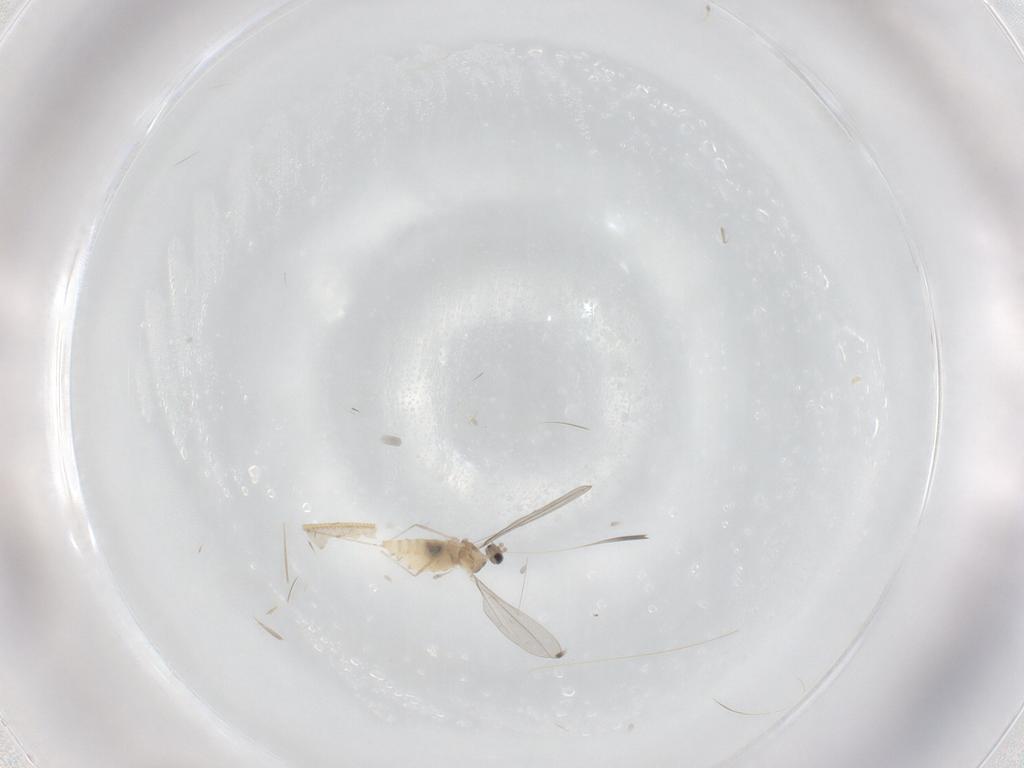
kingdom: Animalia
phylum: Arthropoda
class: Insecta
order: Diptera
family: Limoniidae
